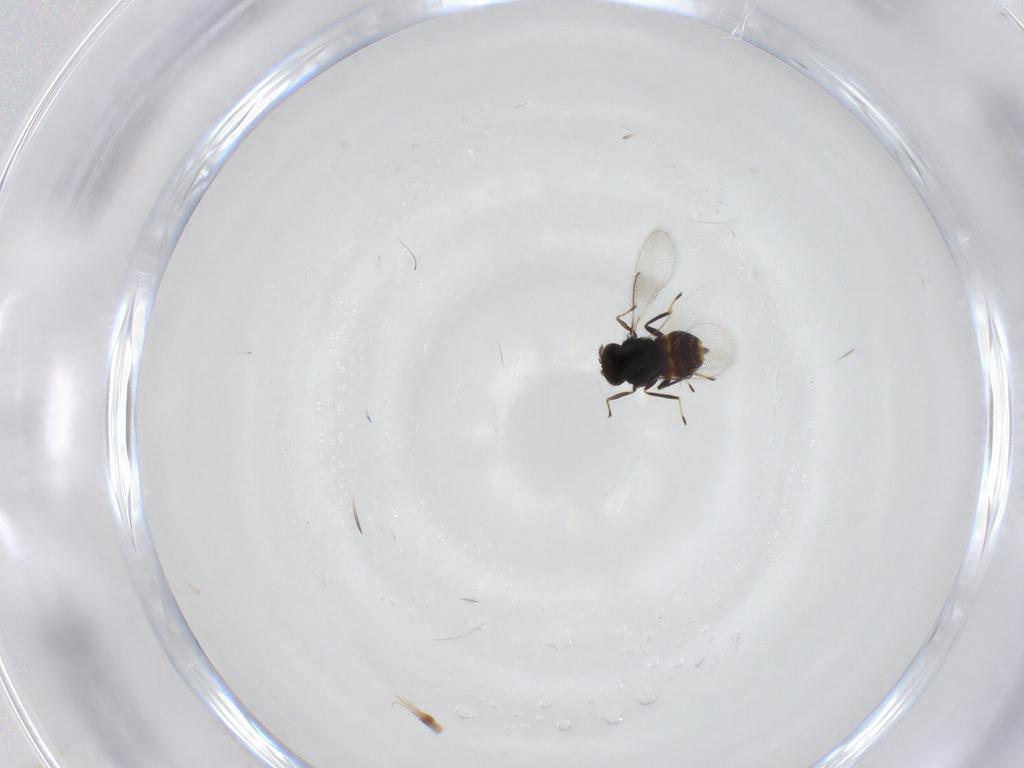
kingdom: Animalia
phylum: Arthropoda
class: Insecta
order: Hymenoptera
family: Eulophidae
